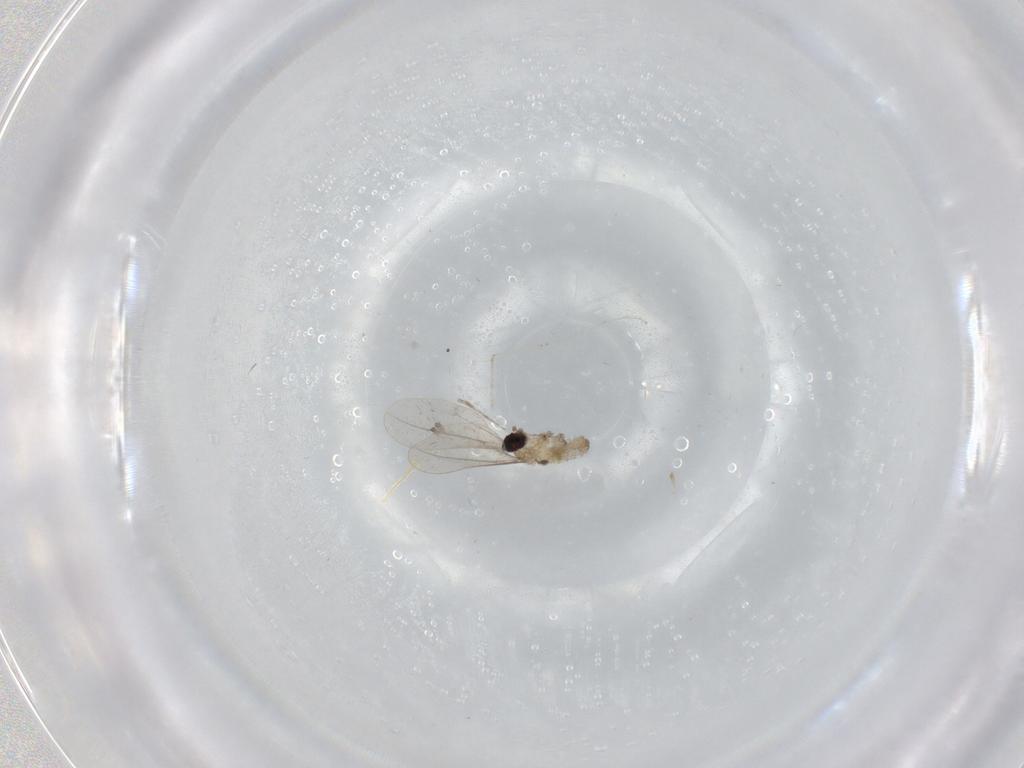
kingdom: Animalia
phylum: Arthropoda
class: Insecta
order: Diptera
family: Cecidomyiidae
